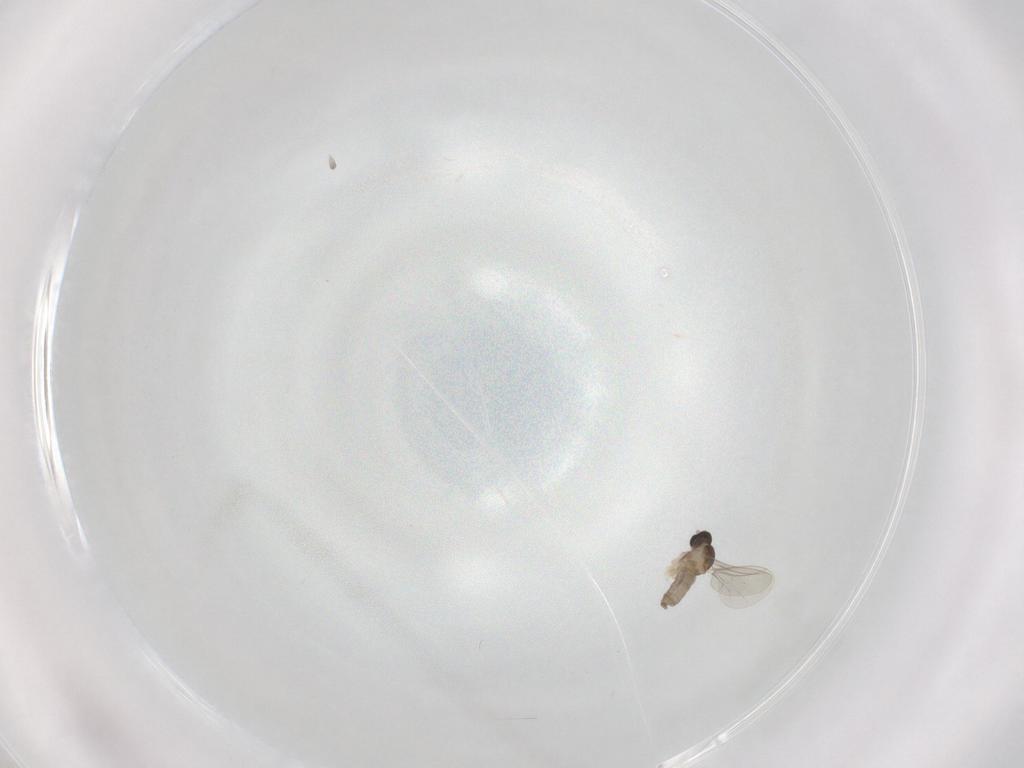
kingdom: Animalia
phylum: Arthropoda
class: Insecta
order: Diptera
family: Cecidomyiidae
